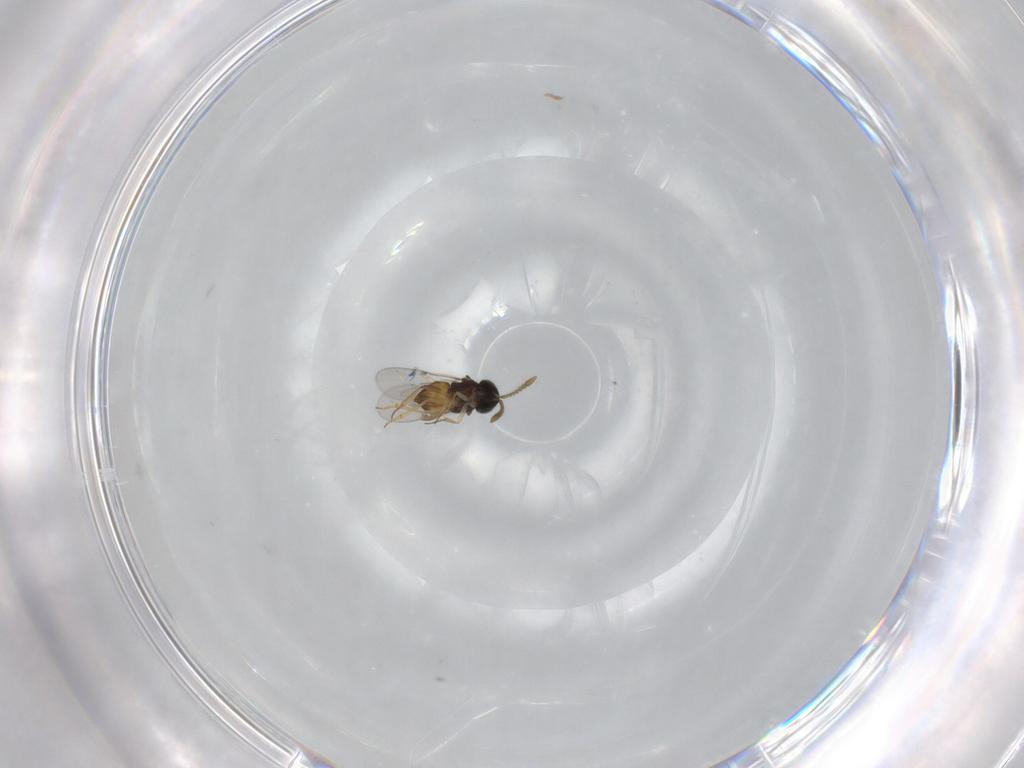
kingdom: Animalia
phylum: Arthropoda
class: Insecta
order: Hymenoptera
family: Encyrtidae
